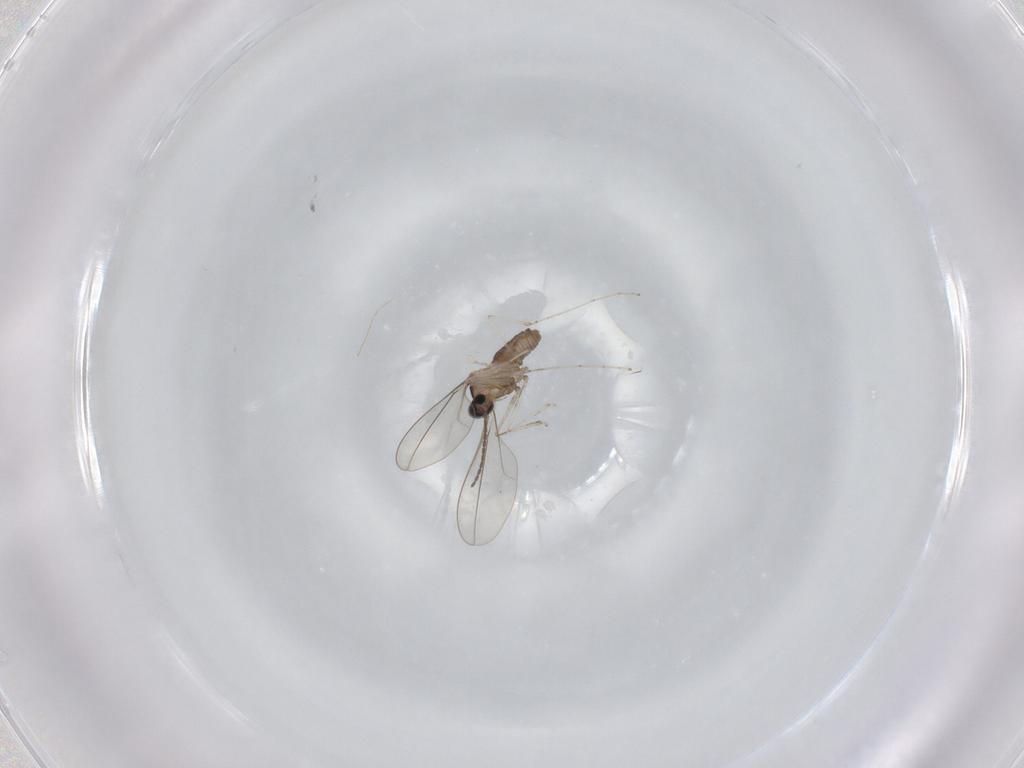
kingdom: Animalia
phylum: Arthropoda
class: Insecta
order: Diptera
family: Cecidomyiidae
